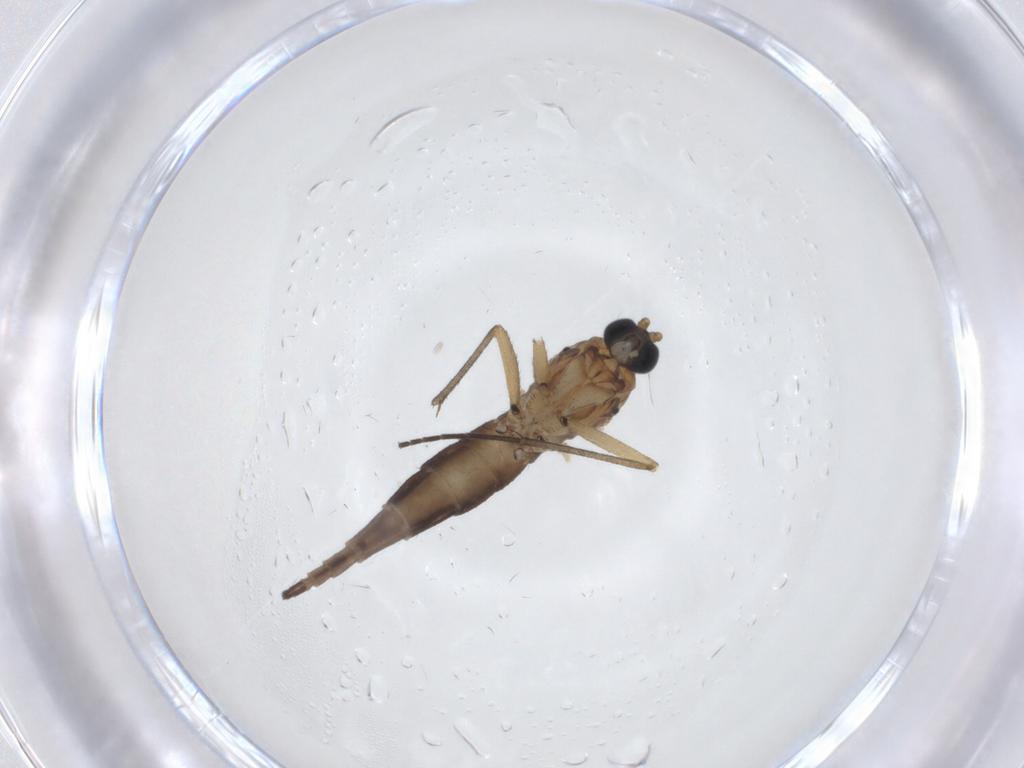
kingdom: Animalia
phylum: Arthropoda
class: Insecta
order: Diptera
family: Sciaridae
